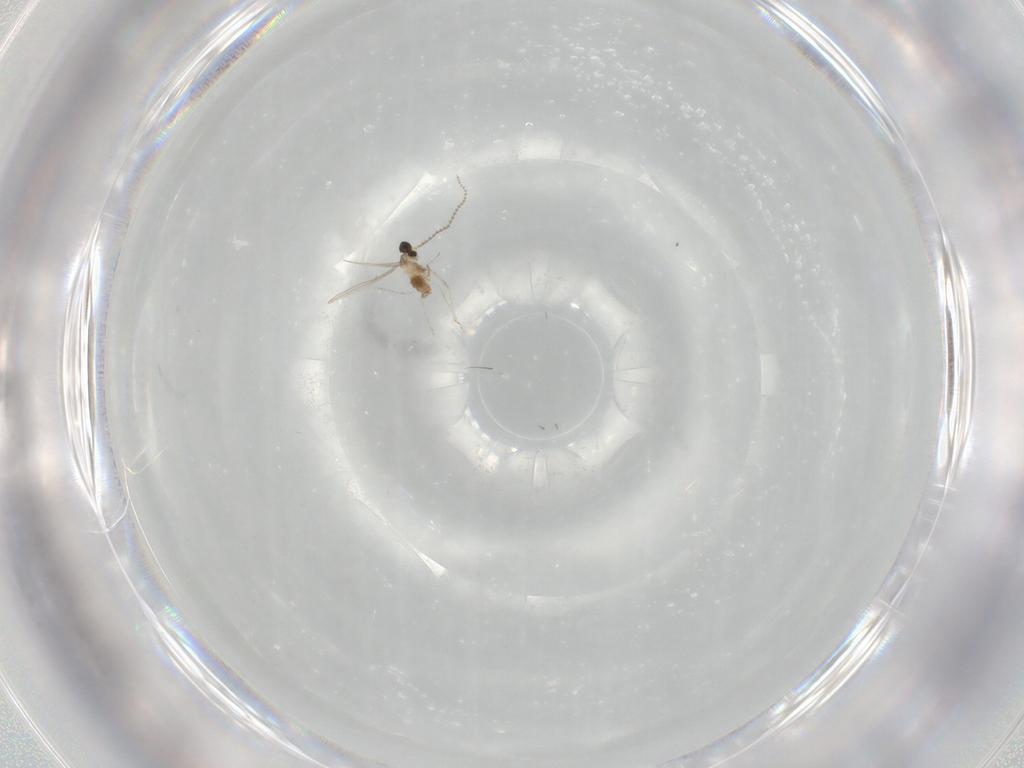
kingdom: Animalia
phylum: Arthropoda
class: Insecta
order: Diptera
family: Cecidomyiidae
